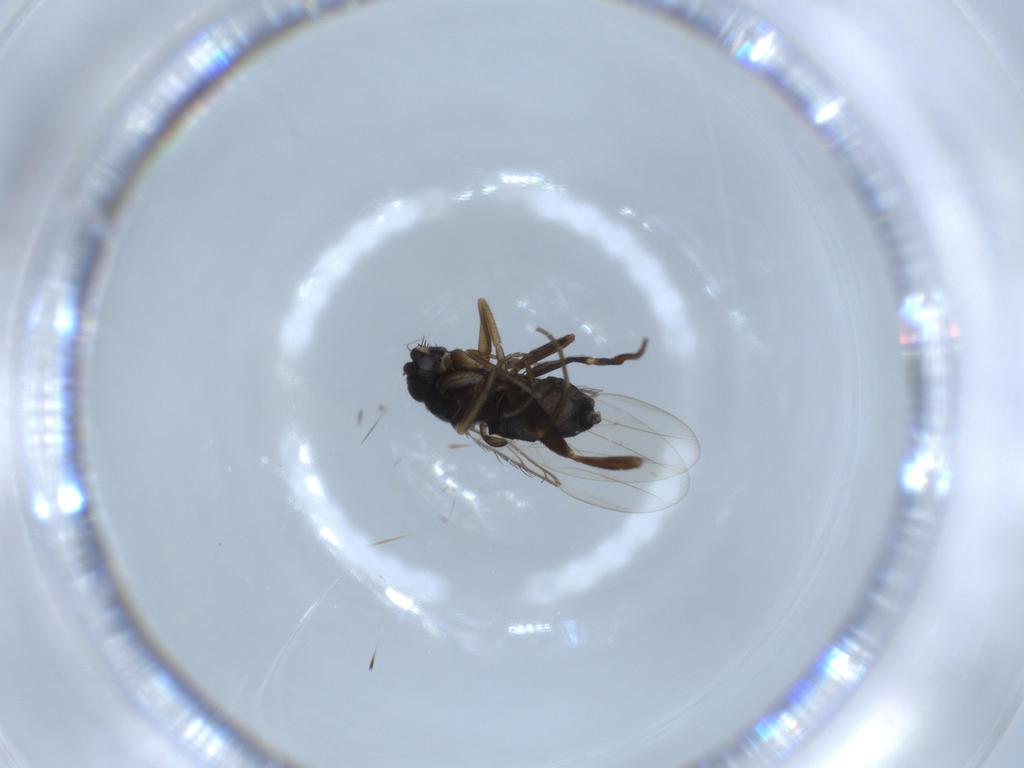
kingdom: Animalia
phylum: Arthropoda
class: Insecta
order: Diptera
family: Phoridae
